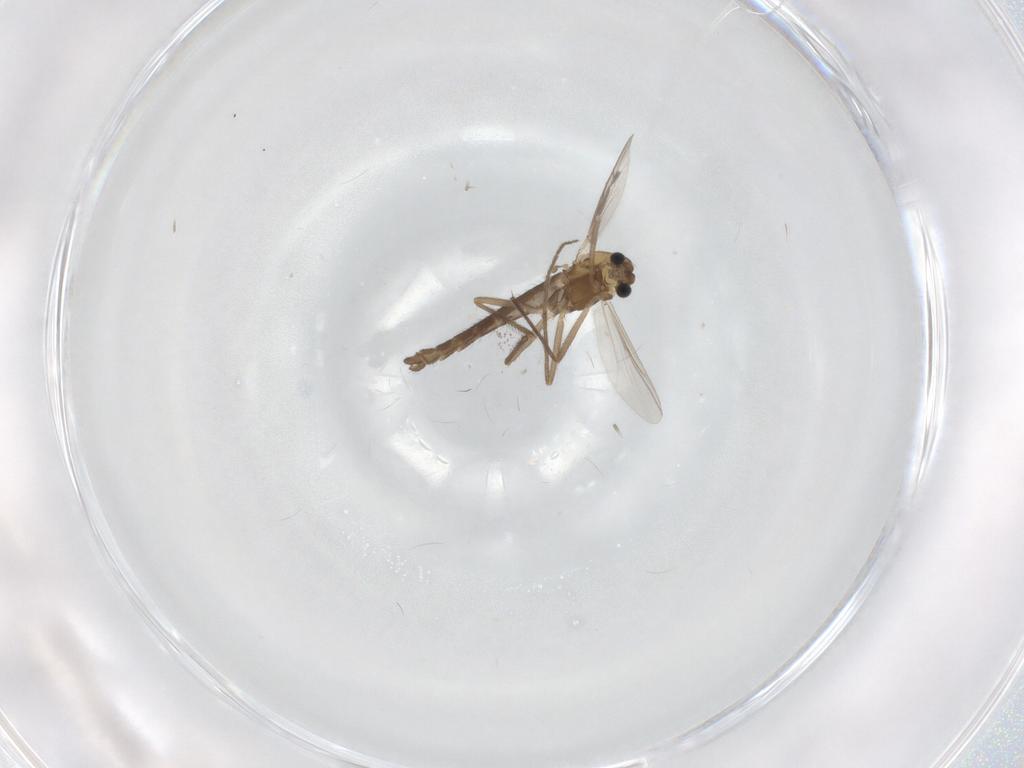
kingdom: Animalia
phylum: Arthropoda
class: Insecta
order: Diptera
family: Chironomidae
